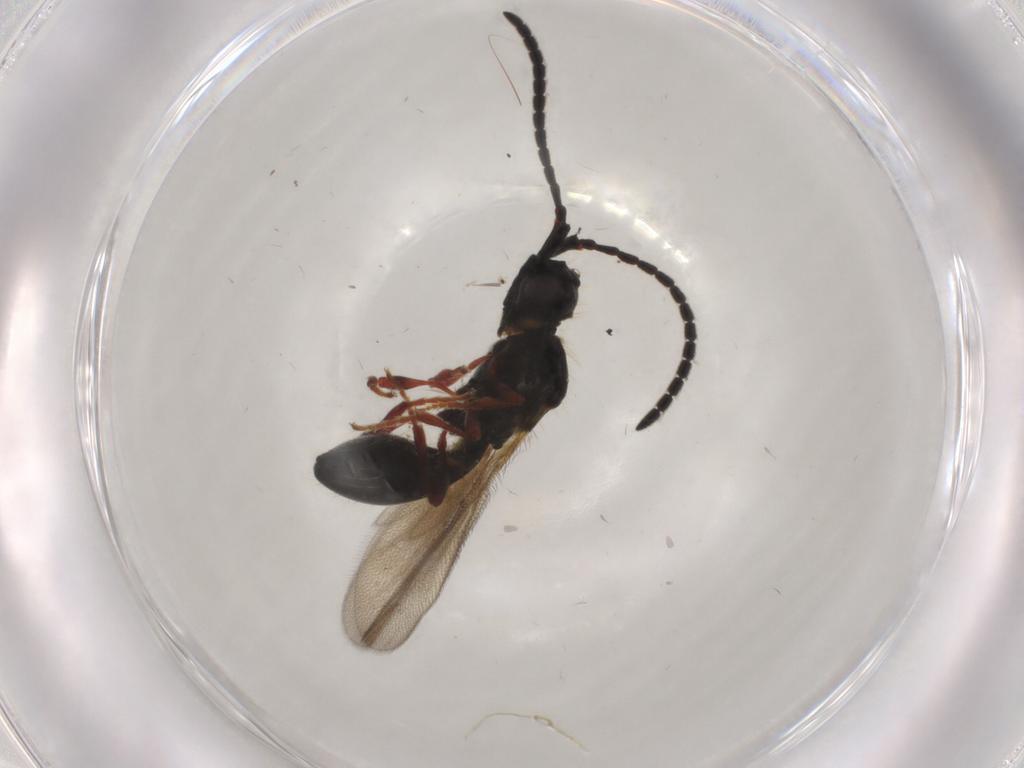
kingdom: Animalia
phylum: Arthropoda
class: Insecta
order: Hymenoptera
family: Diapriidae
